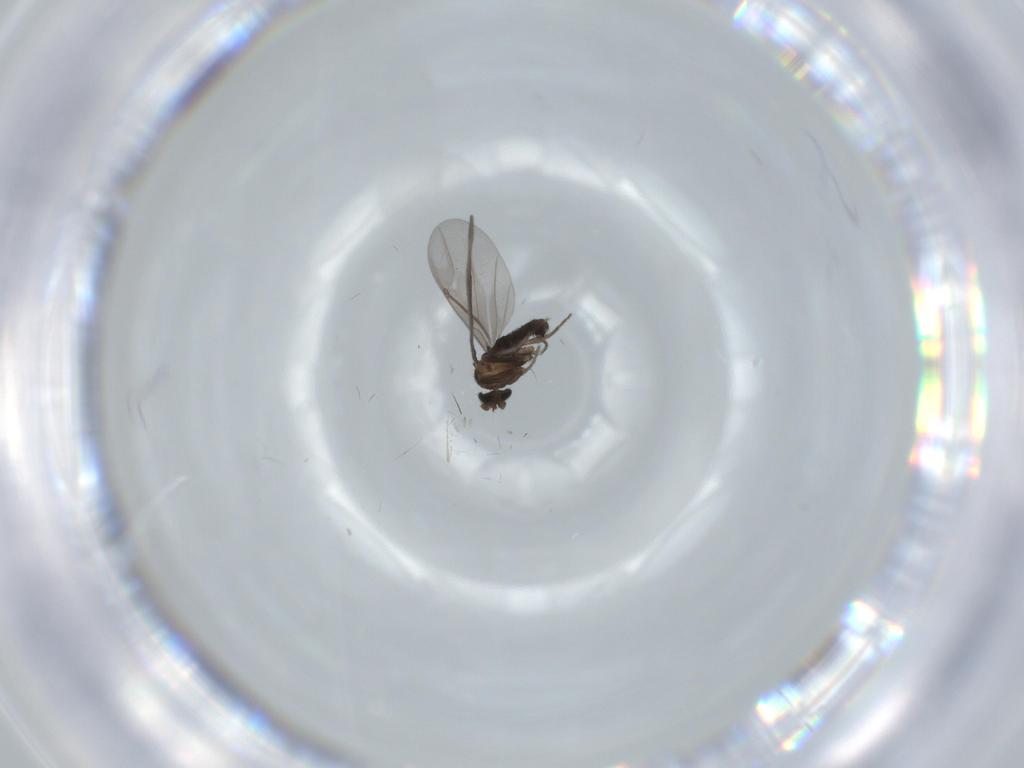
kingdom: Animalia
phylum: Arthropoda
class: Insecta
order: Diptera
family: Phoridae
